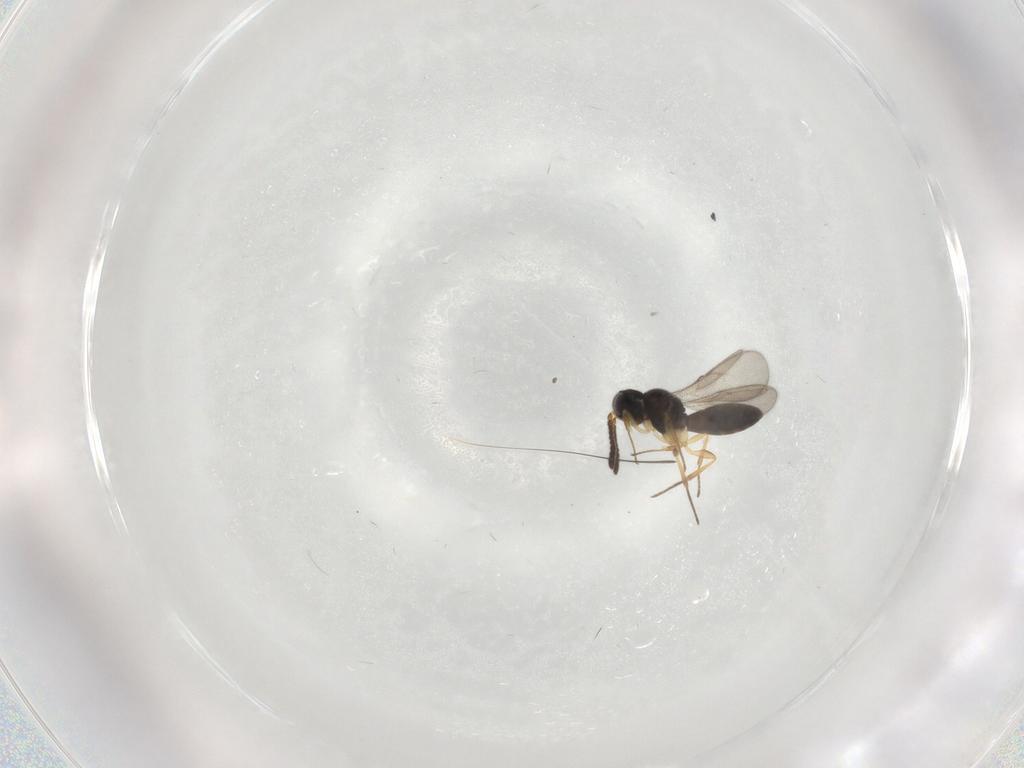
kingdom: Animalia
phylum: Arthropoda
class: Insecta
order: Hymenoptera
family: Scelionidae
